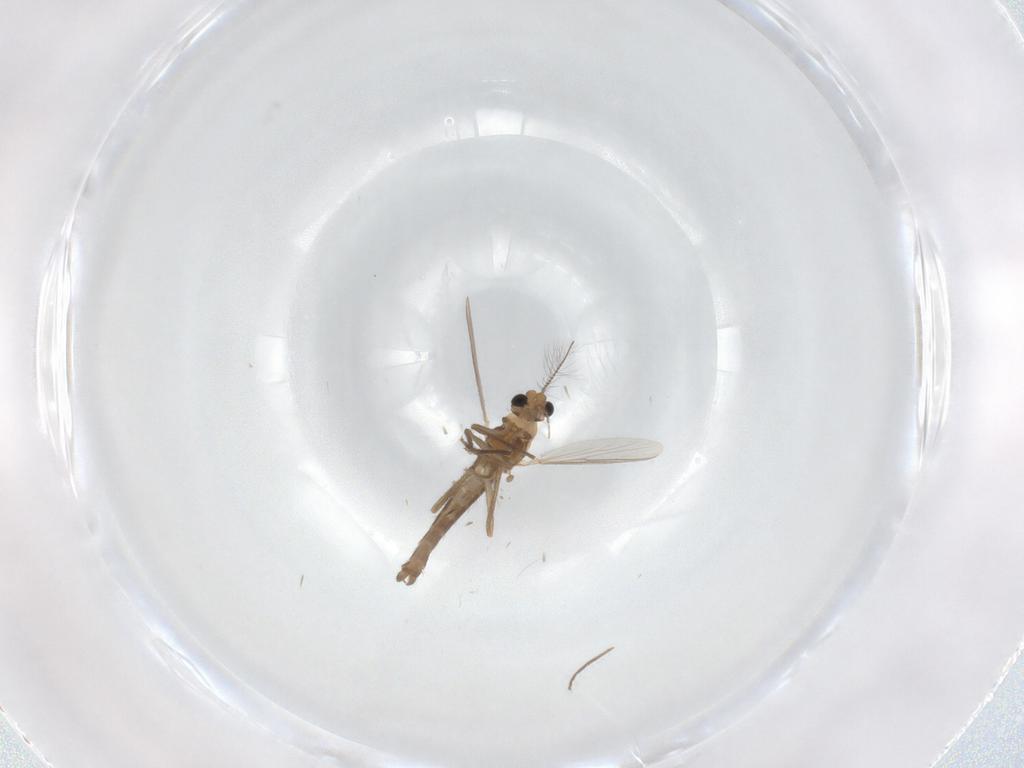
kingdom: Animalia
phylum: Arthropoda
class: Insecta
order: Diptera
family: Chironomidae
